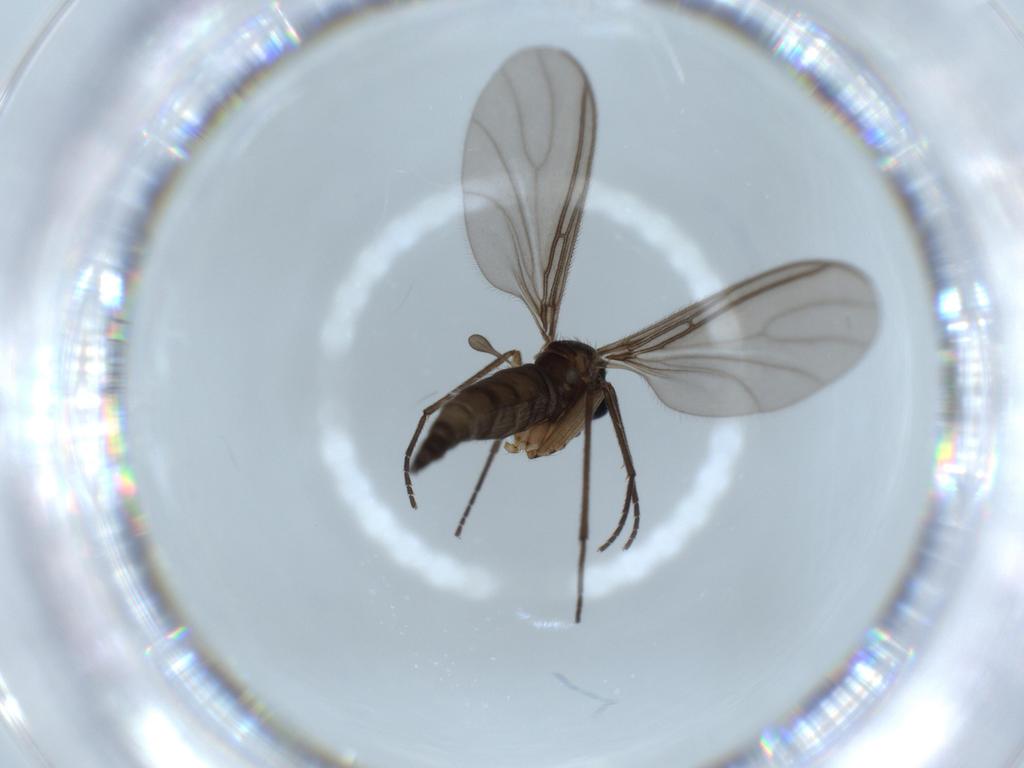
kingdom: Animalia
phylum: Arthropoda
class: Insecta
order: Diptera
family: Sciaridae
